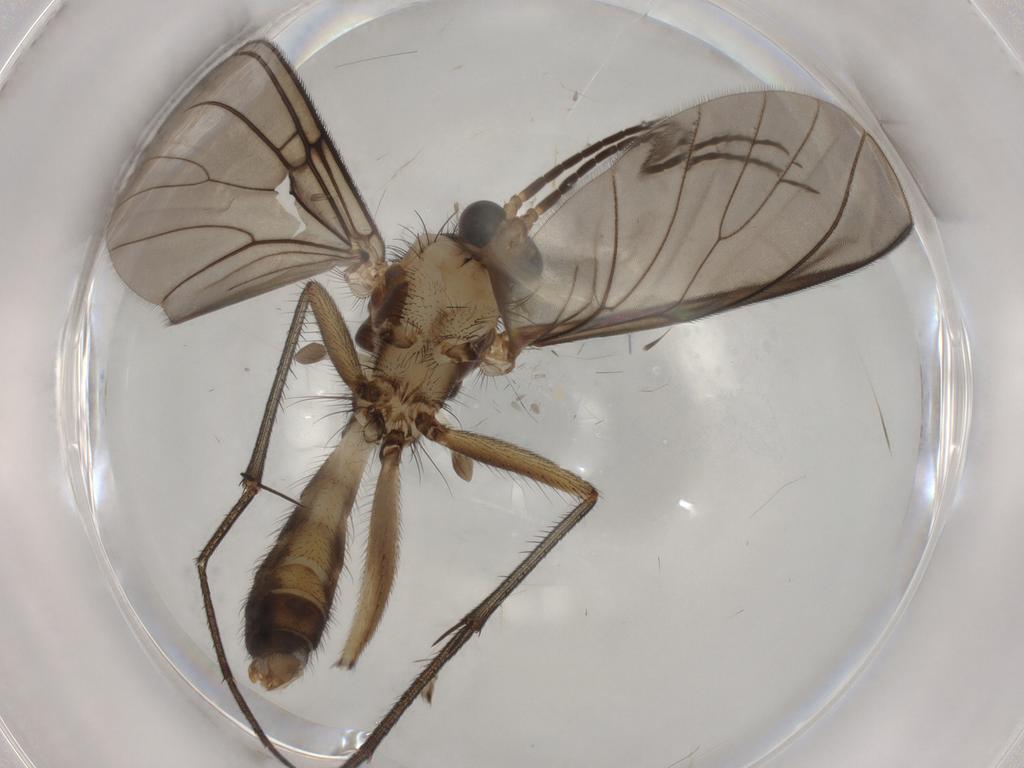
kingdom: Animalia
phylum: Arthropoda
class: Insecta
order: Diptera
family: Mycetophilidae
